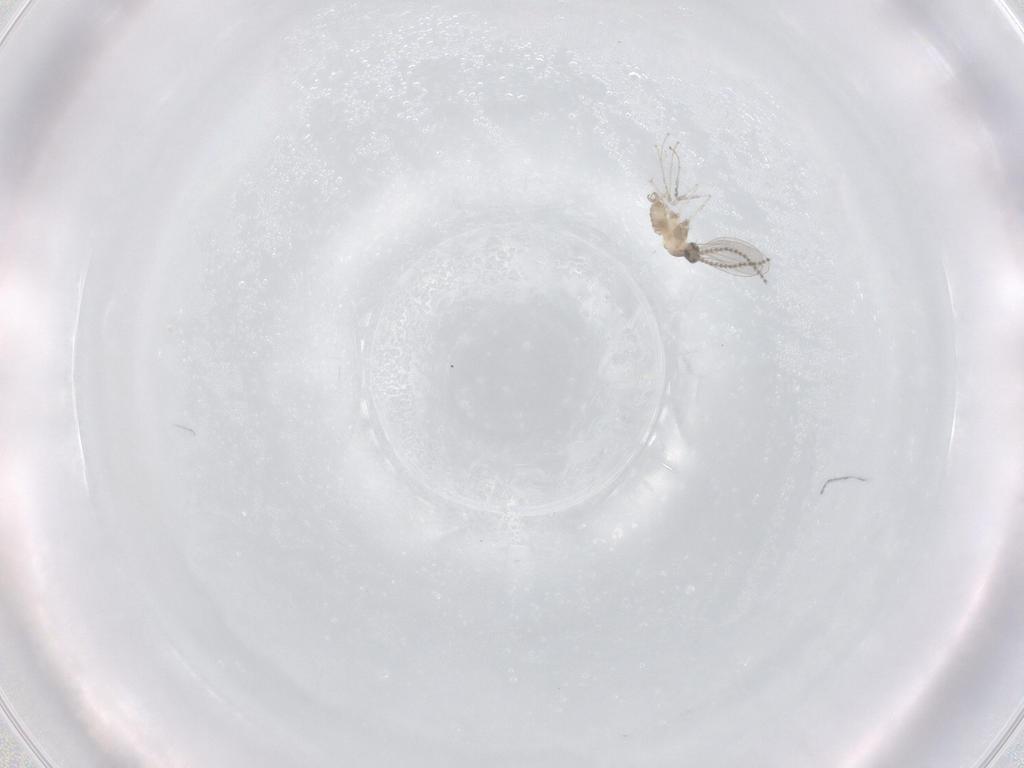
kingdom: Animalia
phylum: Arthropoda
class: Insecta
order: Diptera
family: Cecidomyiidae
